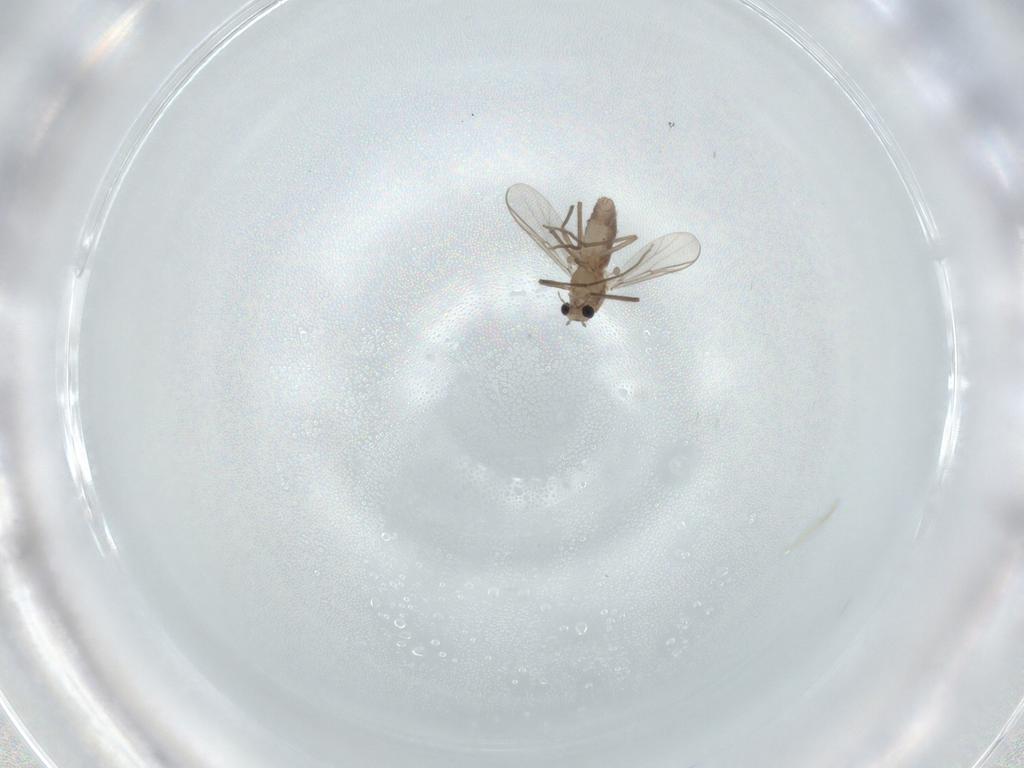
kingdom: Animalia
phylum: Arthropoda
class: Insecta
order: Diptera
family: Chironomidae
